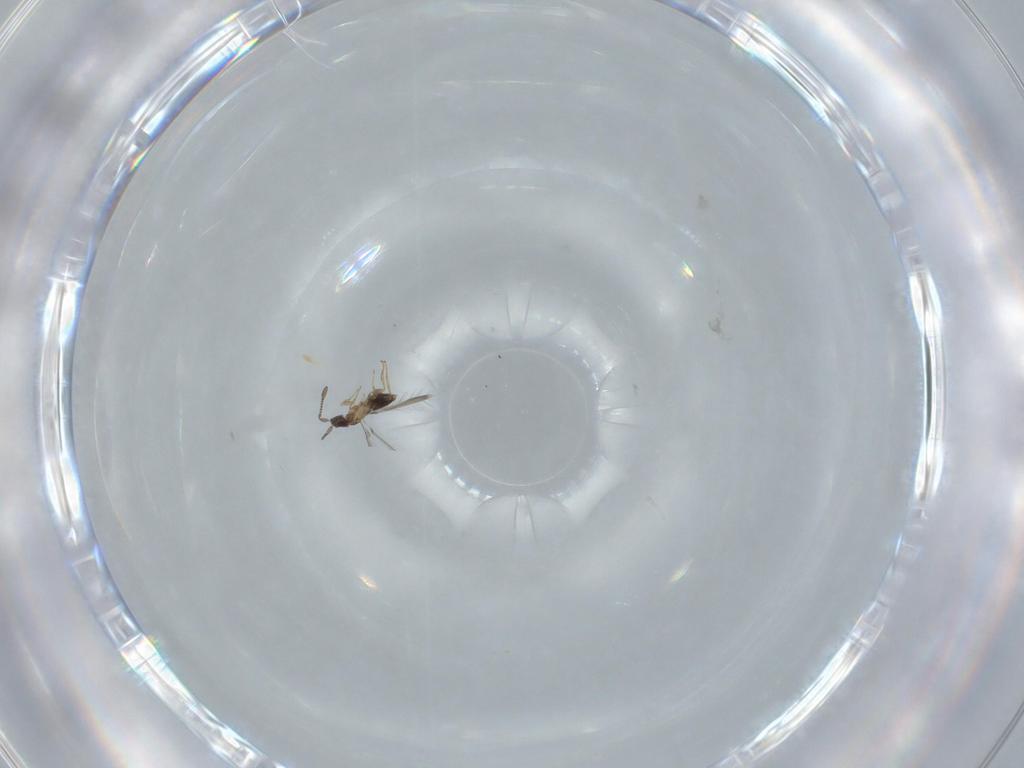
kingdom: Animalia
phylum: Arthropoda
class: Insecta
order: Hymenoptera
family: Mymaridae
